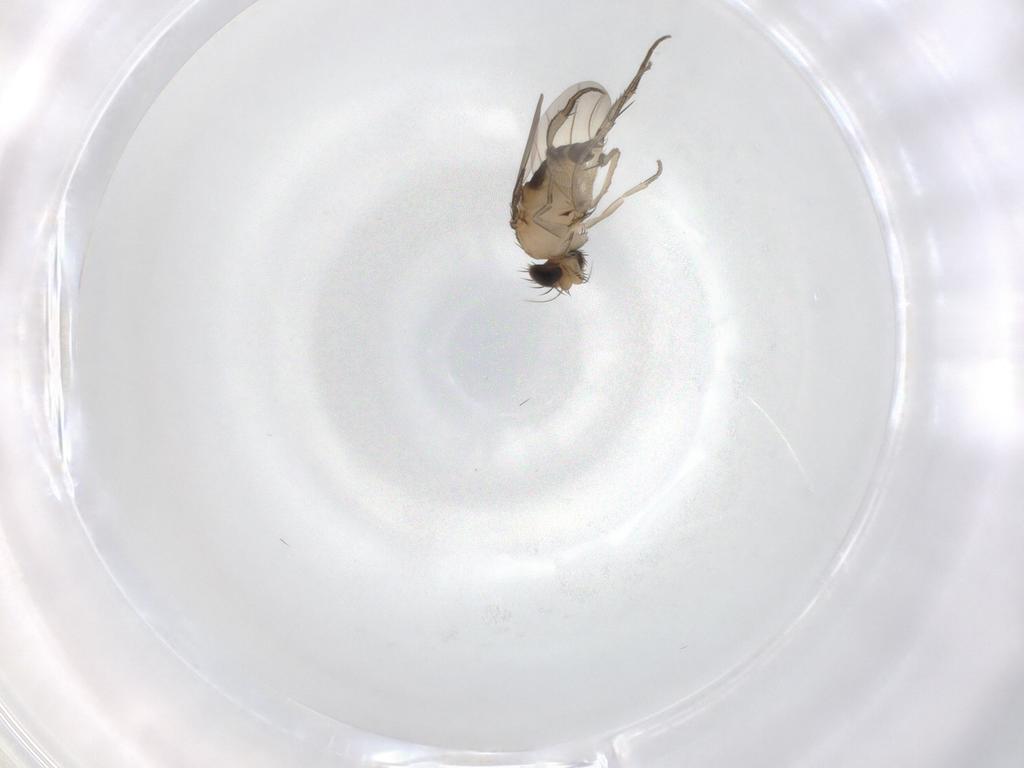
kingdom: Animalia
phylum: Arthropoda
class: Insecta
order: Diptera
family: Phoridae
